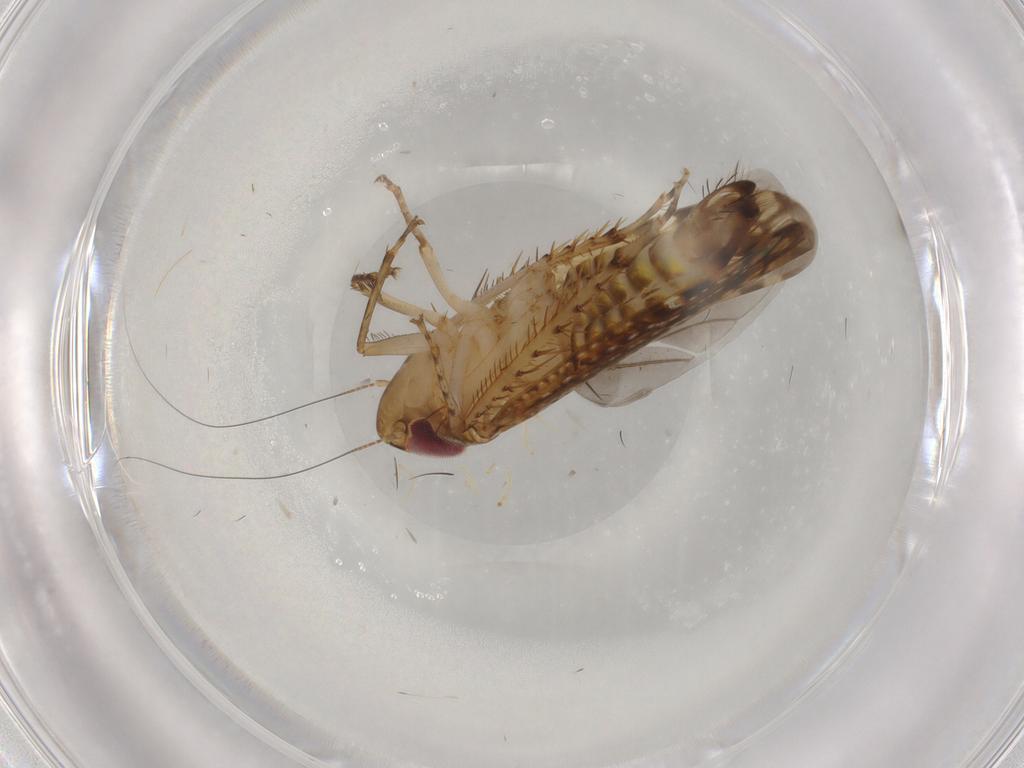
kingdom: Animalia
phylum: Arthropoda
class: Insecta
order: Hemiptera
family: Cicadellidae
